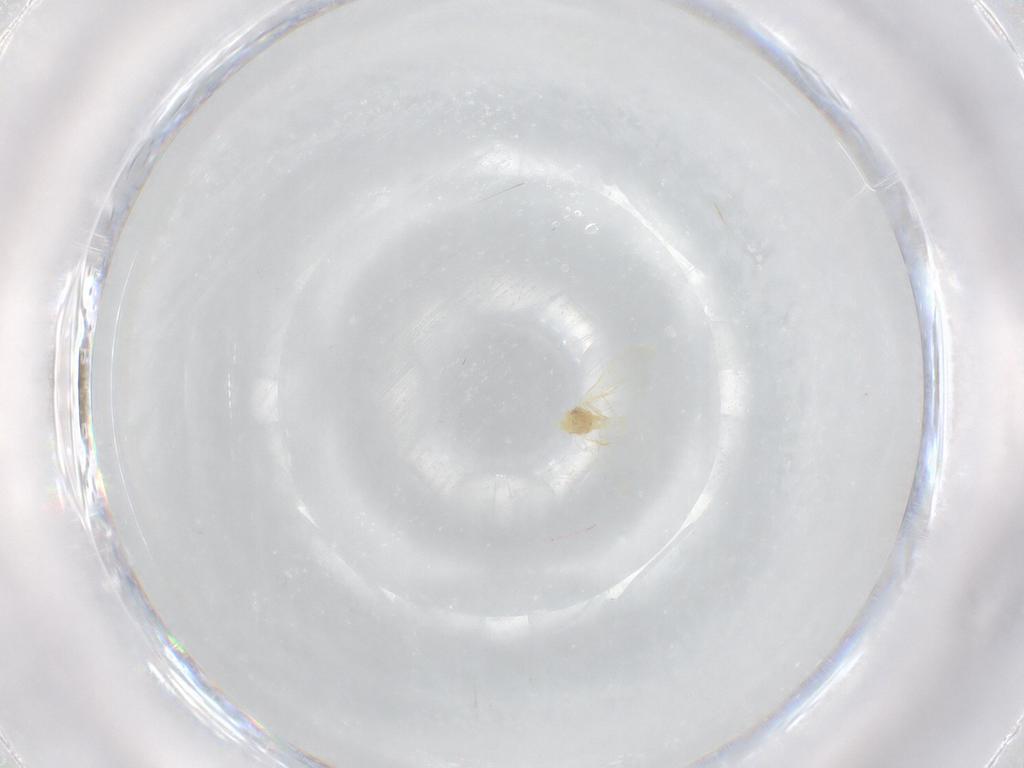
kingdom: Animalia
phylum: Arthropoda
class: Insecta
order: Hemiptera
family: Aleyrodidae
